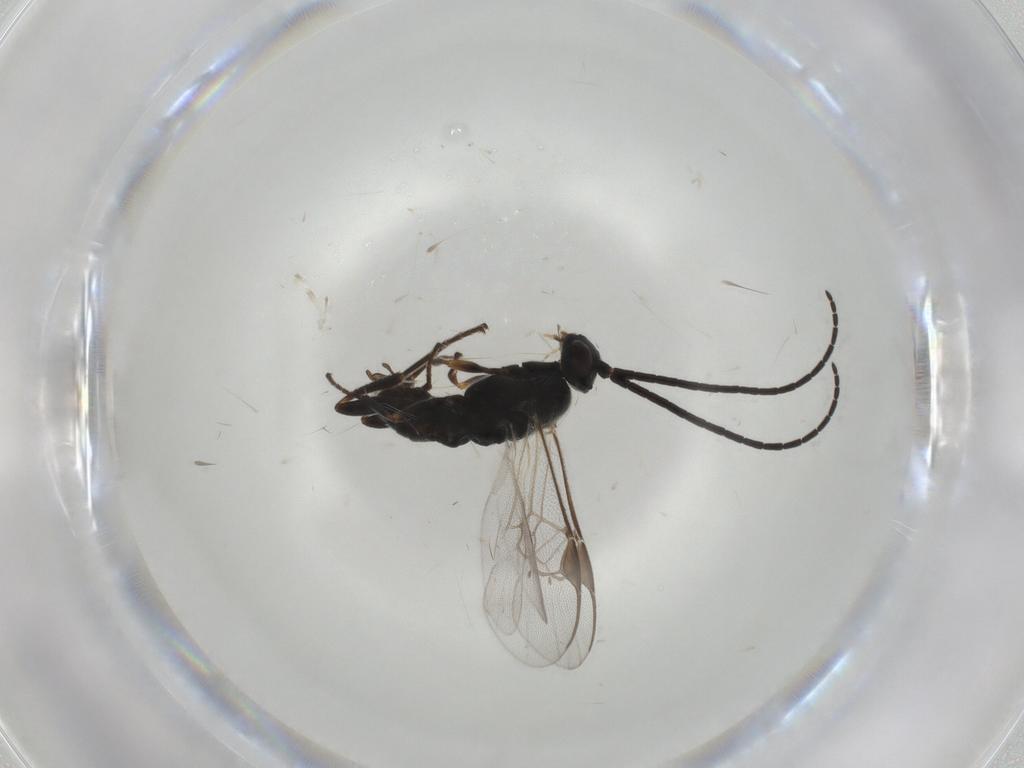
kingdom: Animalia
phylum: Arthropoda
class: Insecta
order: Hymenoptera
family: Braconidae
